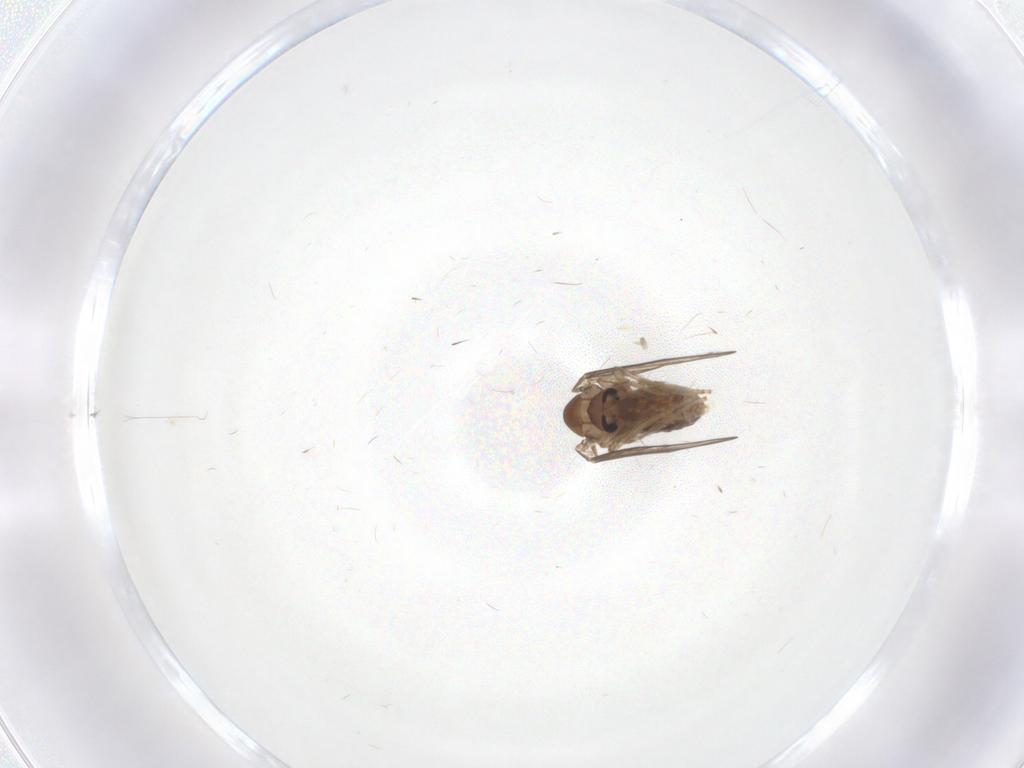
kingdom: Animalia
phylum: Arthropoda
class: Insecta
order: Diptera
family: Psychodidae
